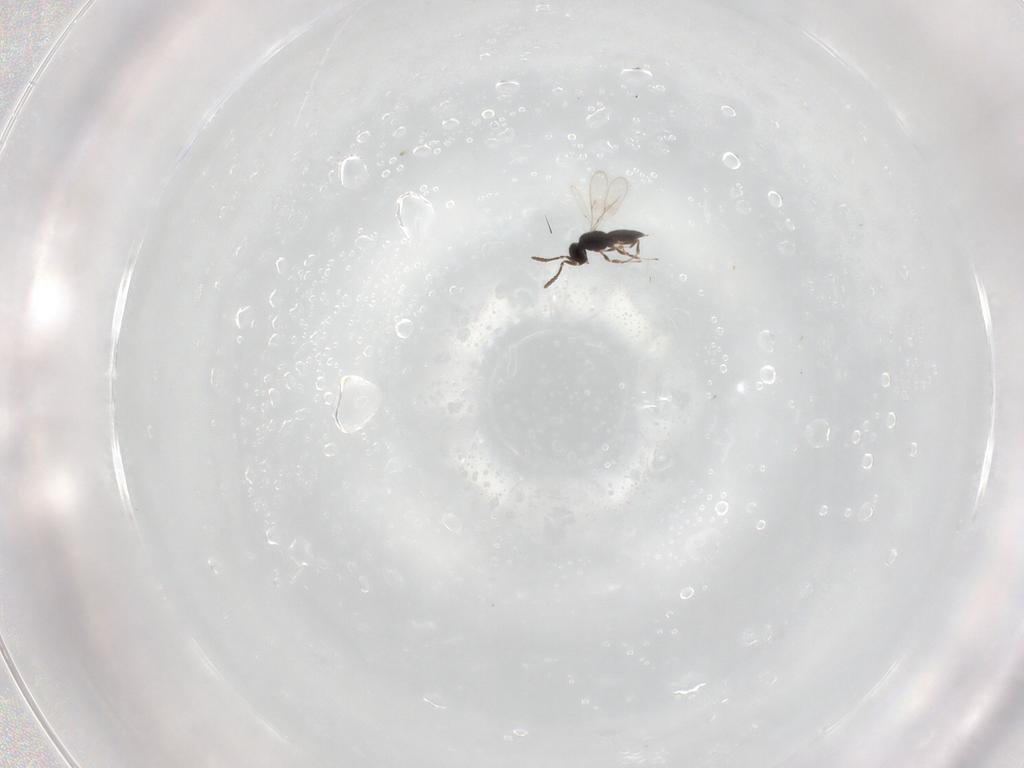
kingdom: Animalia
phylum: Arthropoda
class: Insecta
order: Hymenoptera
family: Scelionidae
